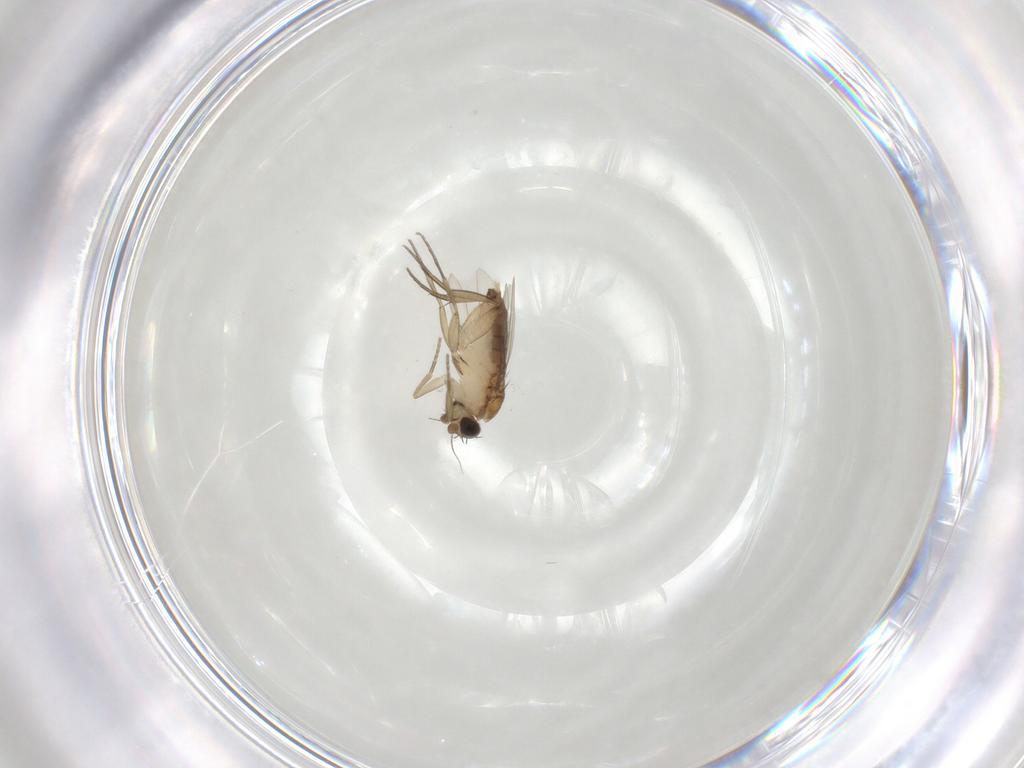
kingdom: Animalia
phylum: Arthropoda
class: Insecta
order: Diptera
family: Phoridae
